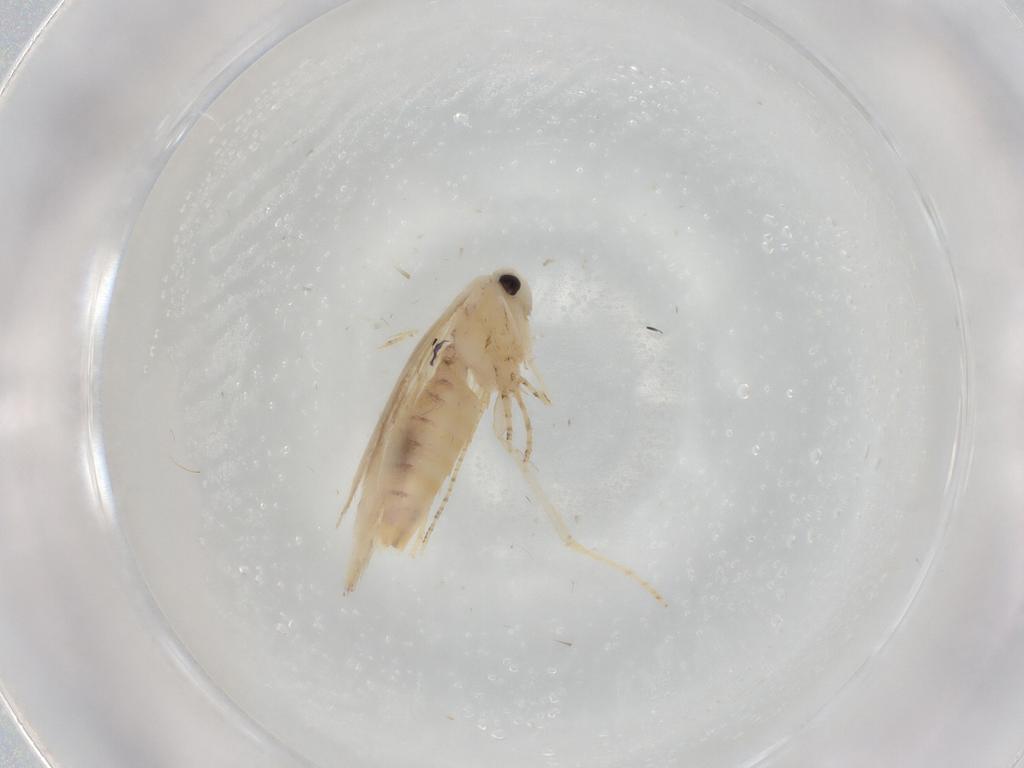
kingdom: Animalia
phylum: Arthropoda
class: Insecta
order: Lepidoptera
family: Bucculatricidae
